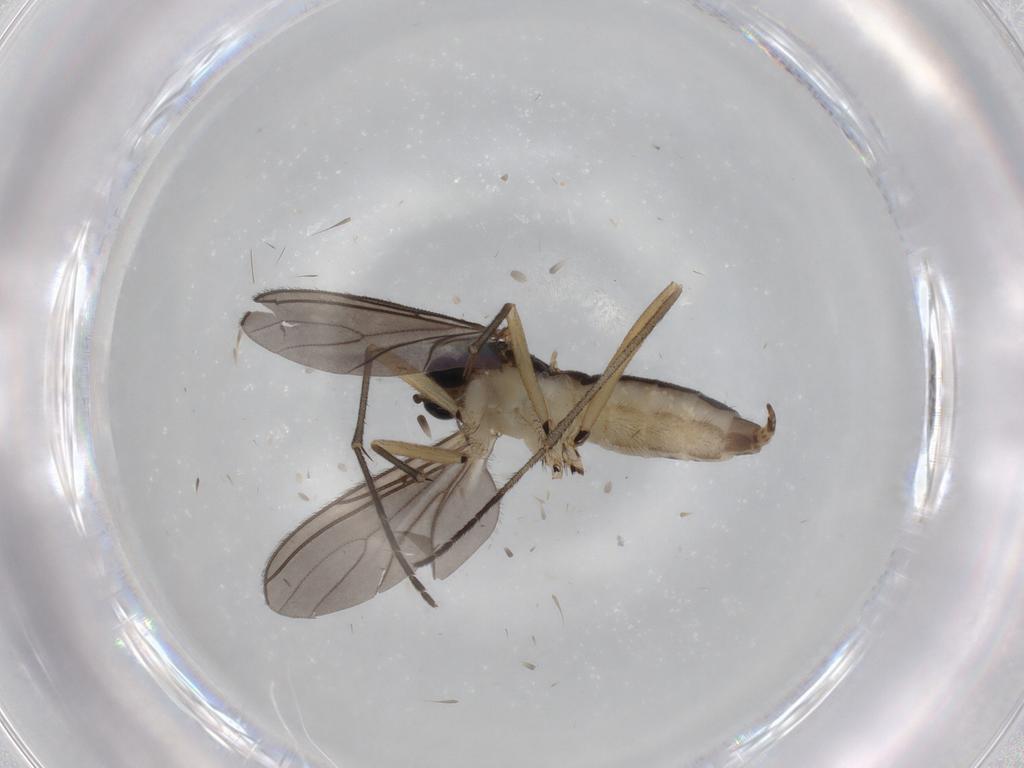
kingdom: Animalia
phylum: Arthropoda
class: Insecta
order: Diptera
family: Sciaridae
